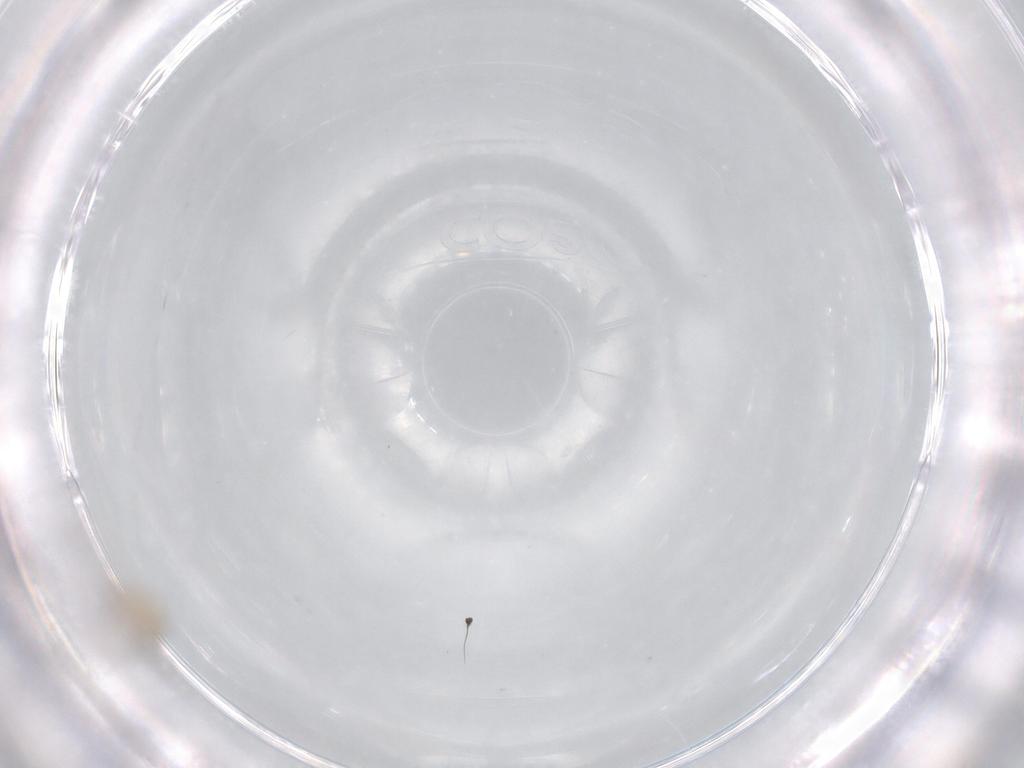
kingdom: Animalia
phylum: Arthropoda
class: Insecta
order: Diptera
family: Dolichopodidae
